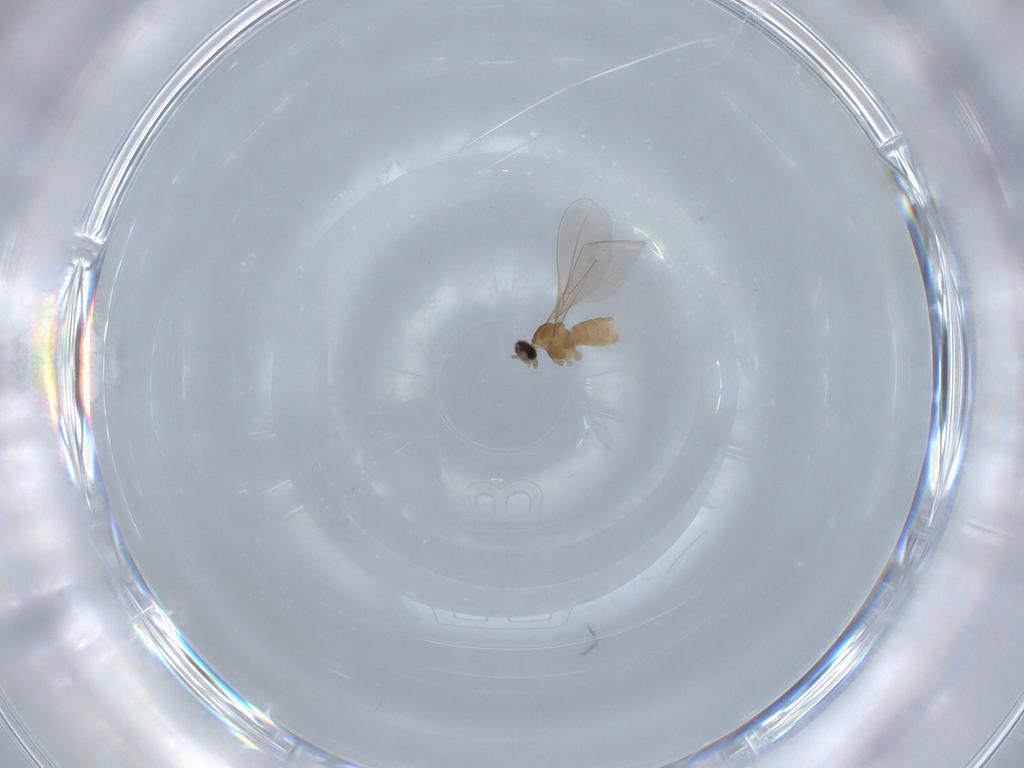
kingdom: Animalia
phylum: Arthropoda
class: Insecta
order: Diptera
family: Cecidomyiidae
